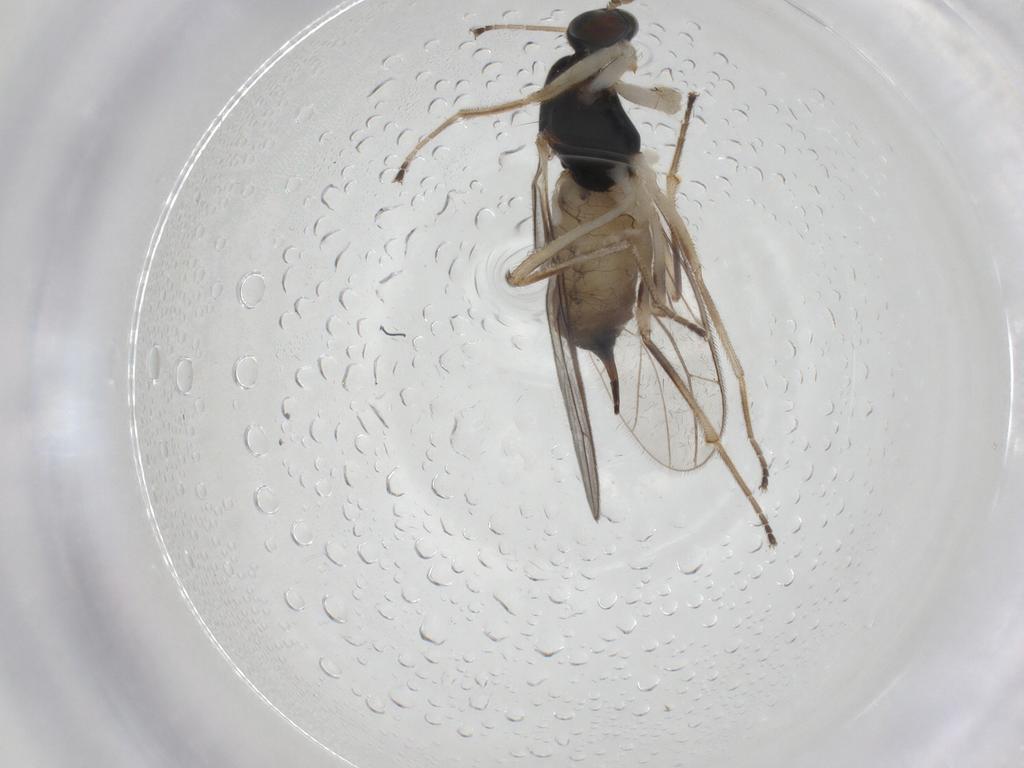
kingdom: Animalia
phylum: Arthropoda
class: Insecta
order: Diptera
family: Empididae
